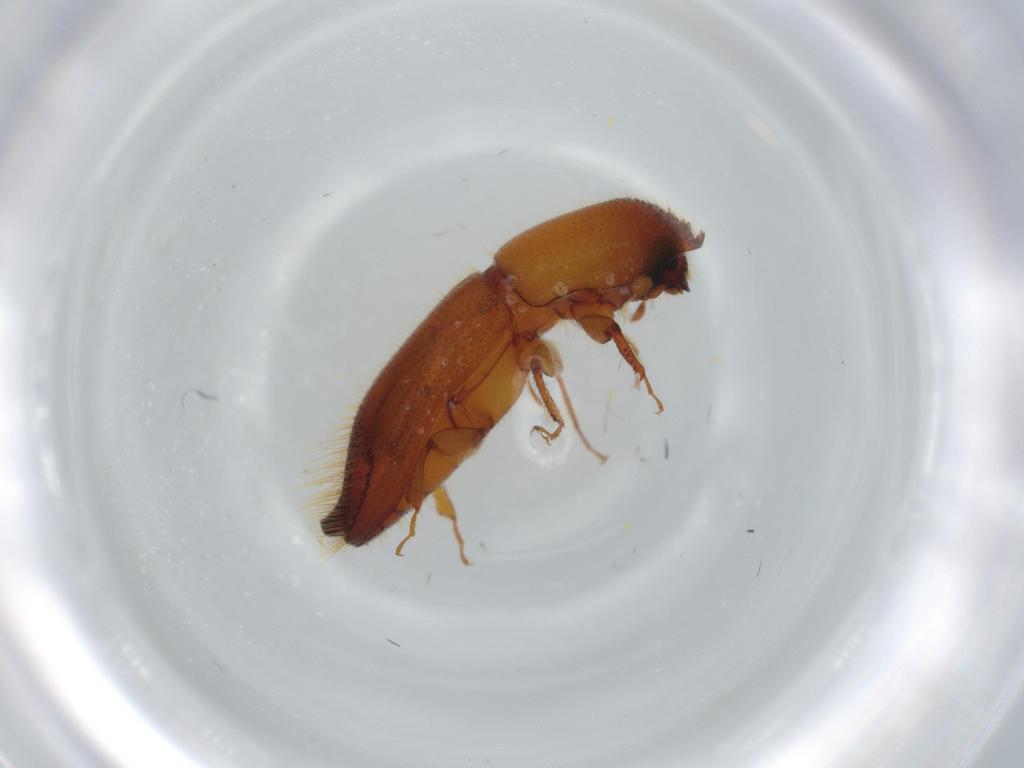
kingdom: Animalia
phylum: Arthropoda
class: Insecta
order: Coleoptera
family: Curculionidae
